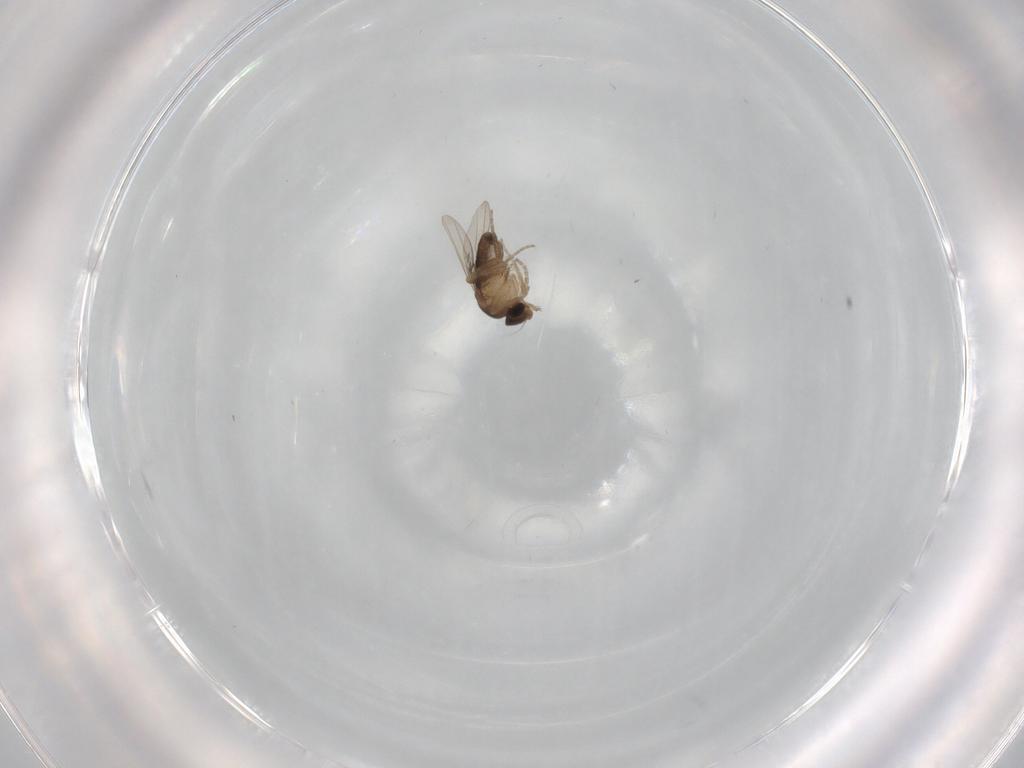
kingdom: Animalia
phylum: Arthropoda
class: Insecta
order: Diptera
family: Phoridae
